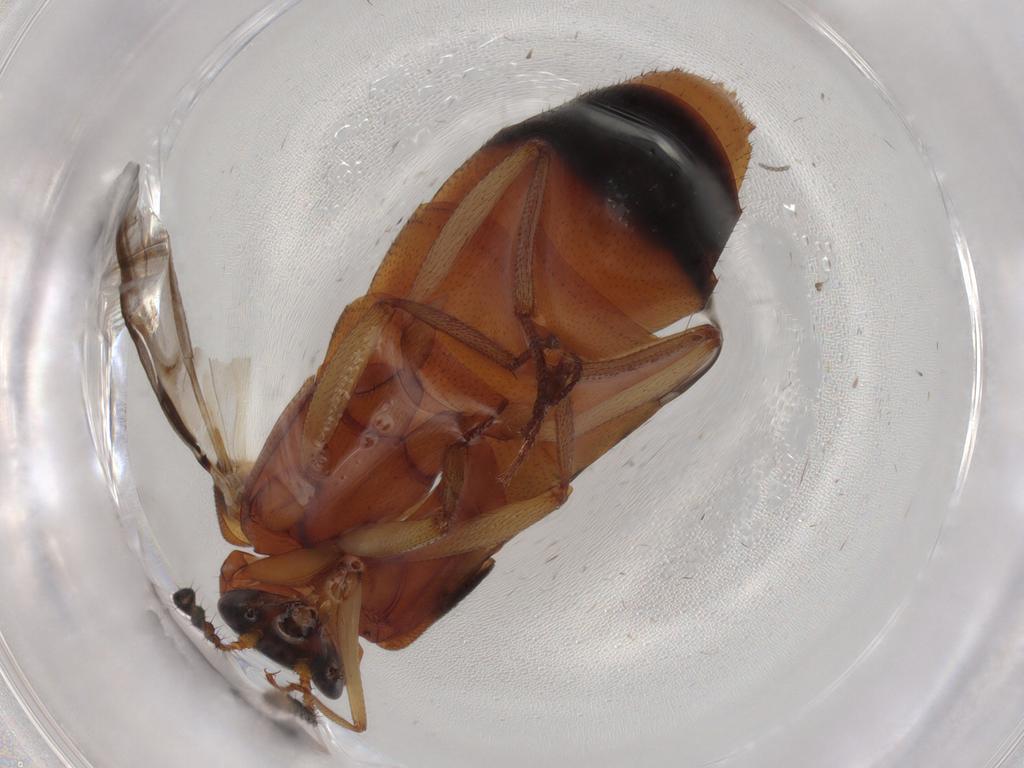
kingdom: Animalia
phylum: Arthropoda
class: Insecta
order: Coleoptera
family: Staphylinidae
